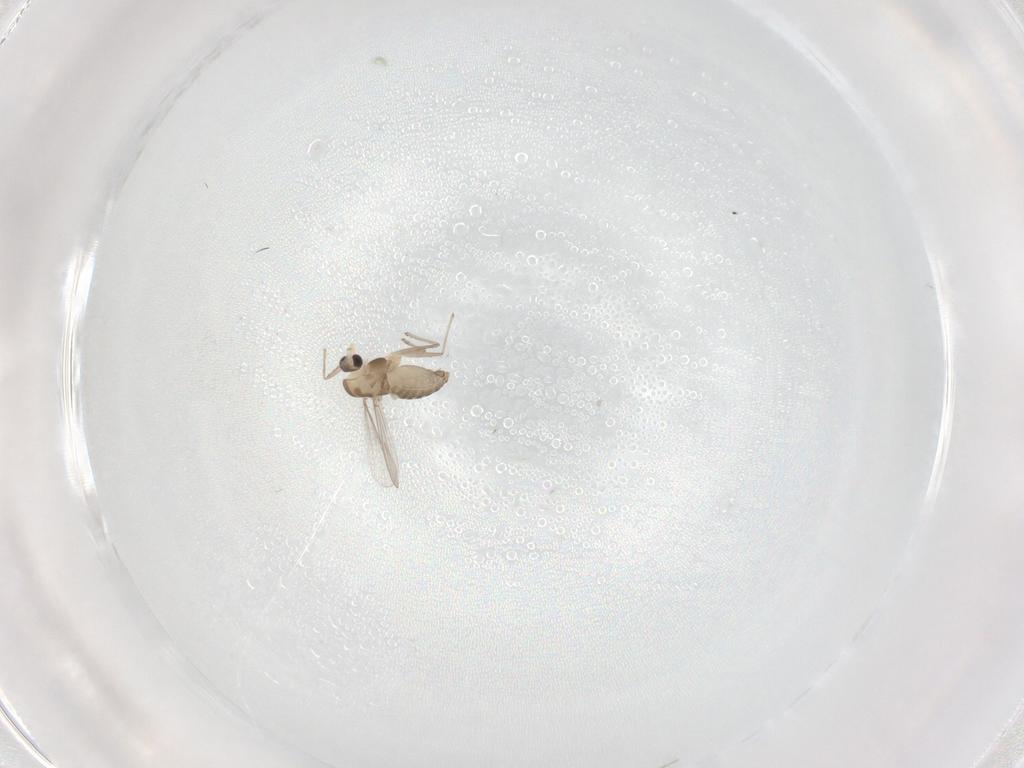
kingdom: Animalia
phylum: Arthropoda
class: Insecta
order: Diptera
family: Chironomidae
